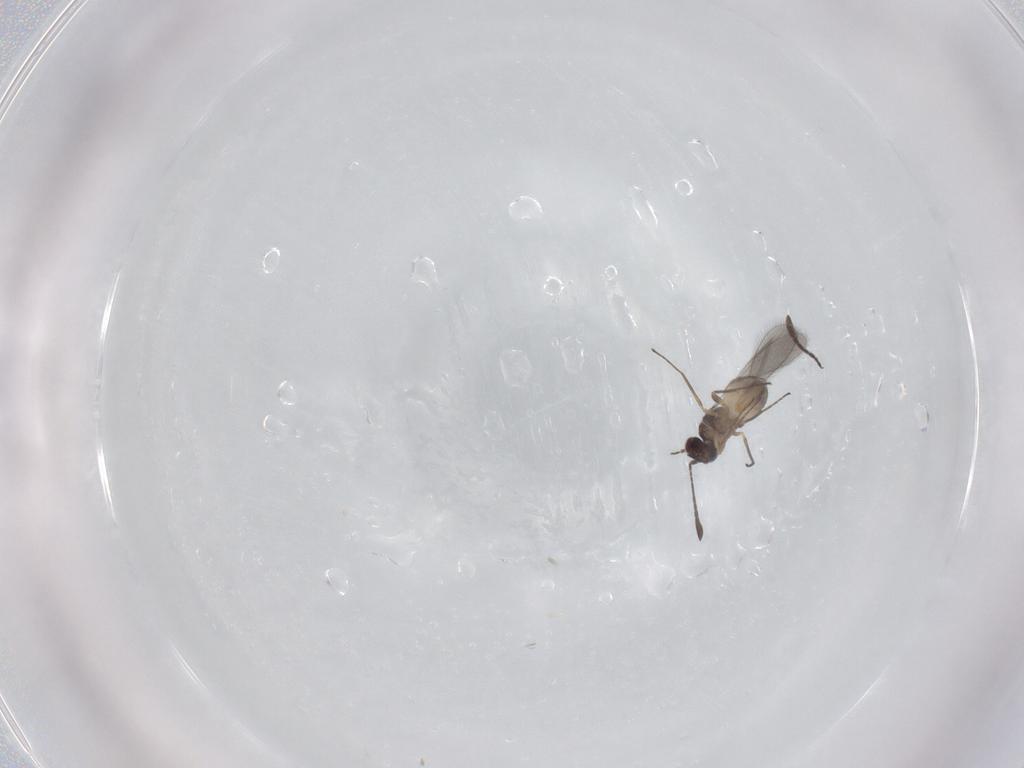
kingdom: Animalia
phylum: Arthropoda
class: Insecta
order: Hymenoptera
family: Mymaridae
